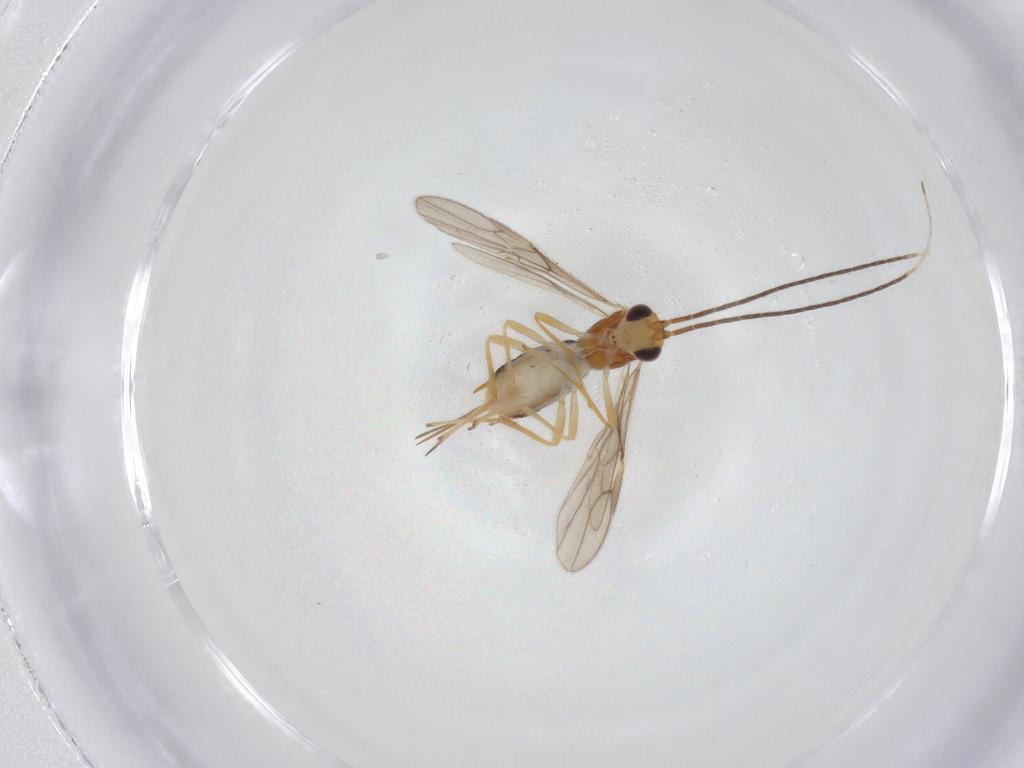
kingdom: Animalia
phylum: Arthropoda
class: Insecta
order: Hymenoptera
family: Braconidae
